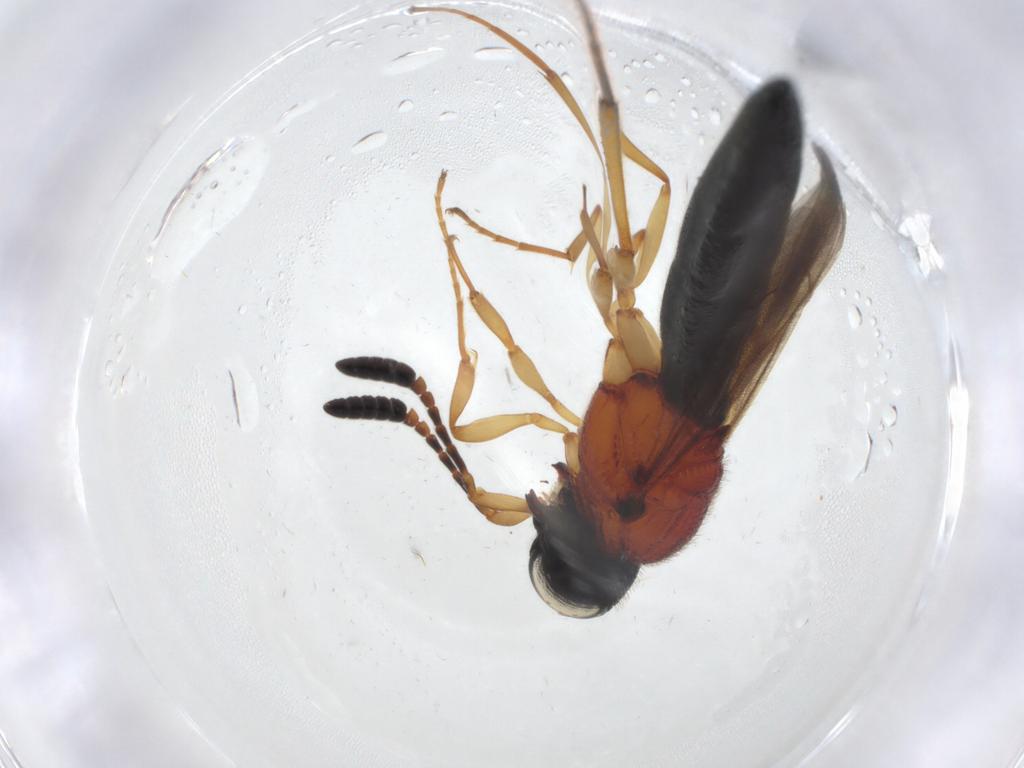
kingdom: Animalia
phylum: Arthropoda
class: Insecta
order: Hymenoptera
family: Scelionidae
